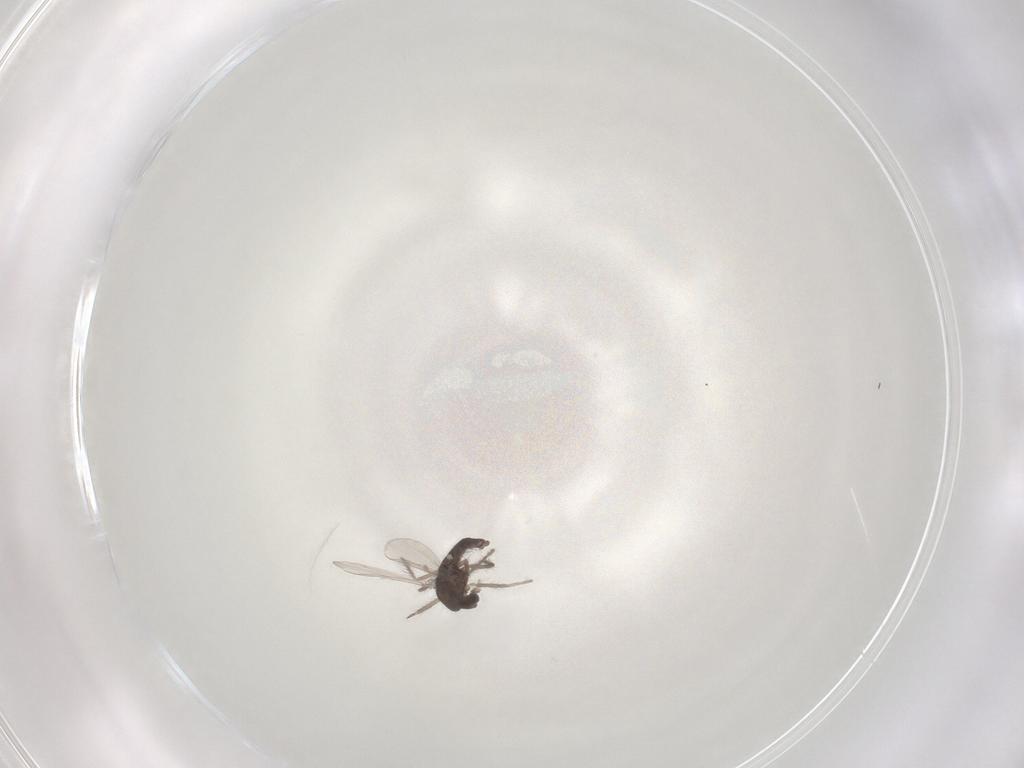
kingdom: Animalia
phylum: Arthropoda
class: Insecta
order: Diptera
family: Chironomidae
